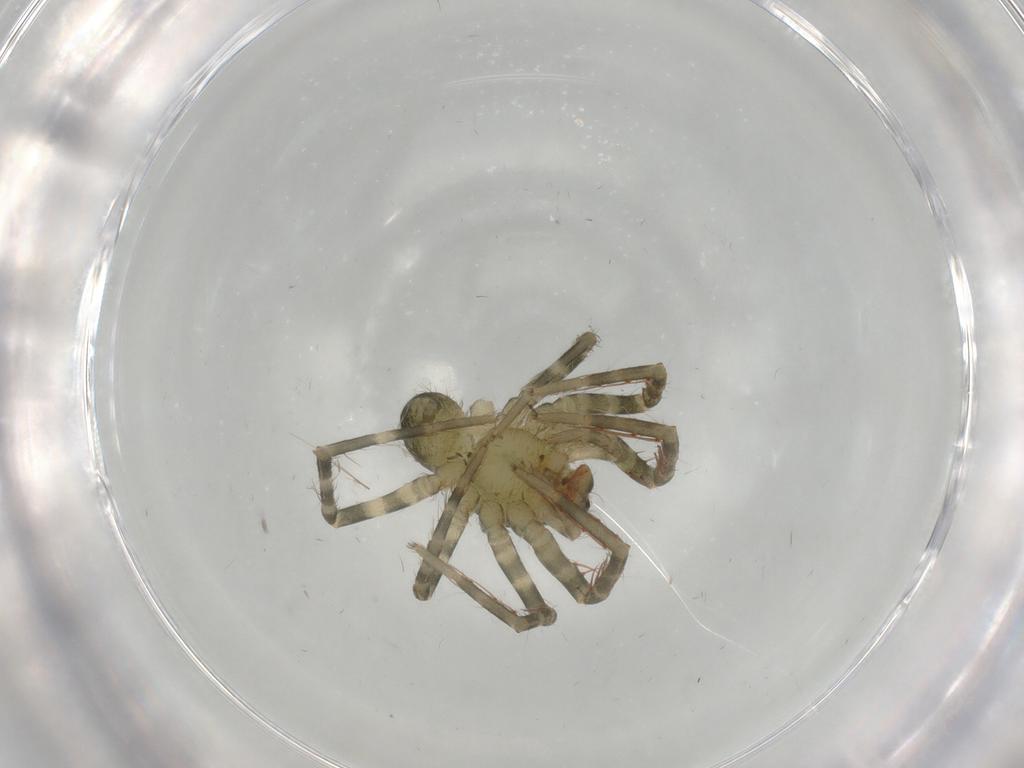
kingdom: Animalia
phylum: Arthropoda
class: Arachnida
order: Araneae
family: Ctenidae
